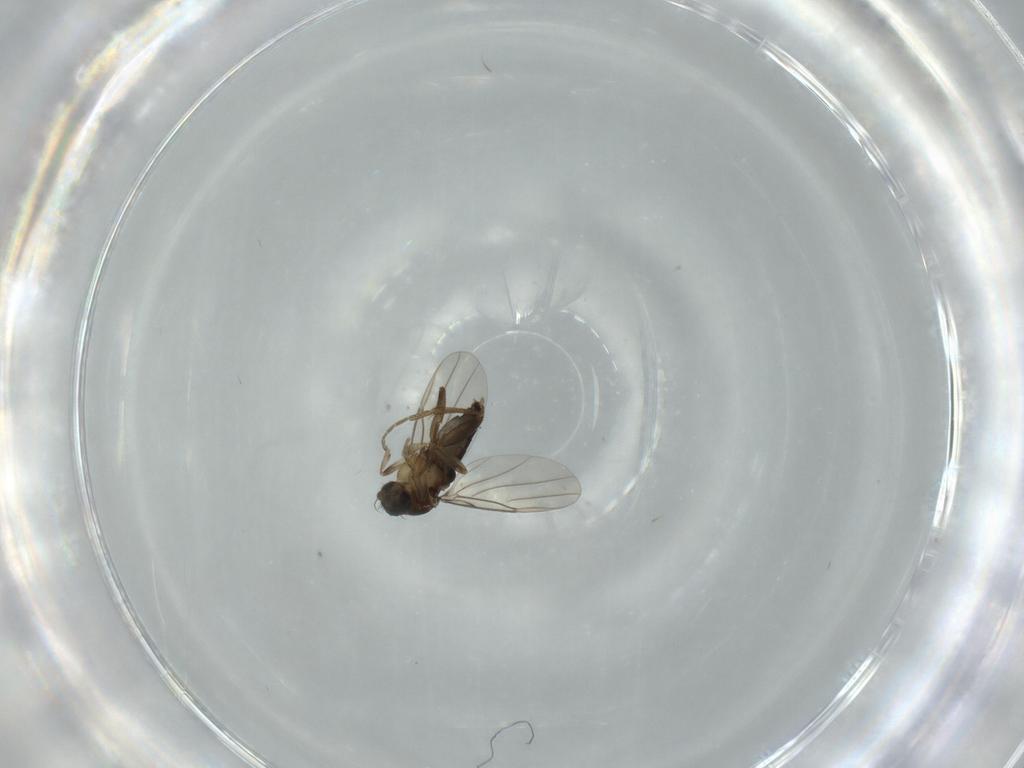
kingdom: Animalia
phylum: Arthropoda
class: Insecta
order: Diptera
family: Phoridae
